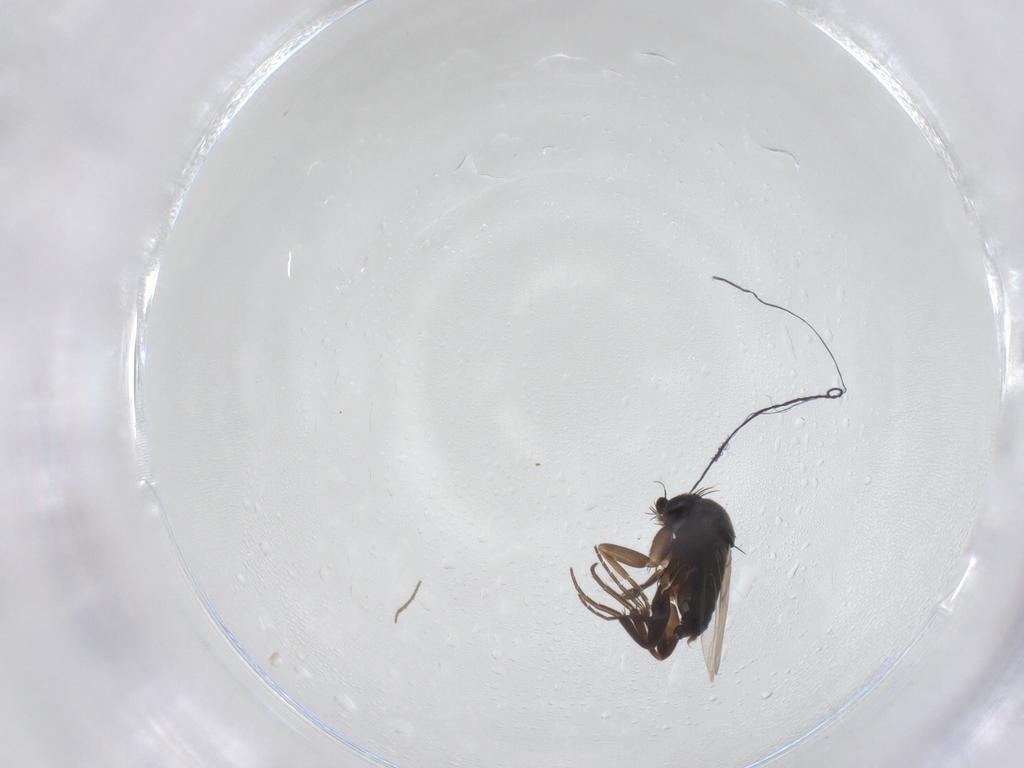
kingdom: Animalia
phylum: Arthropoda
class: Insecta
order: Diptera
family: Phoridae
